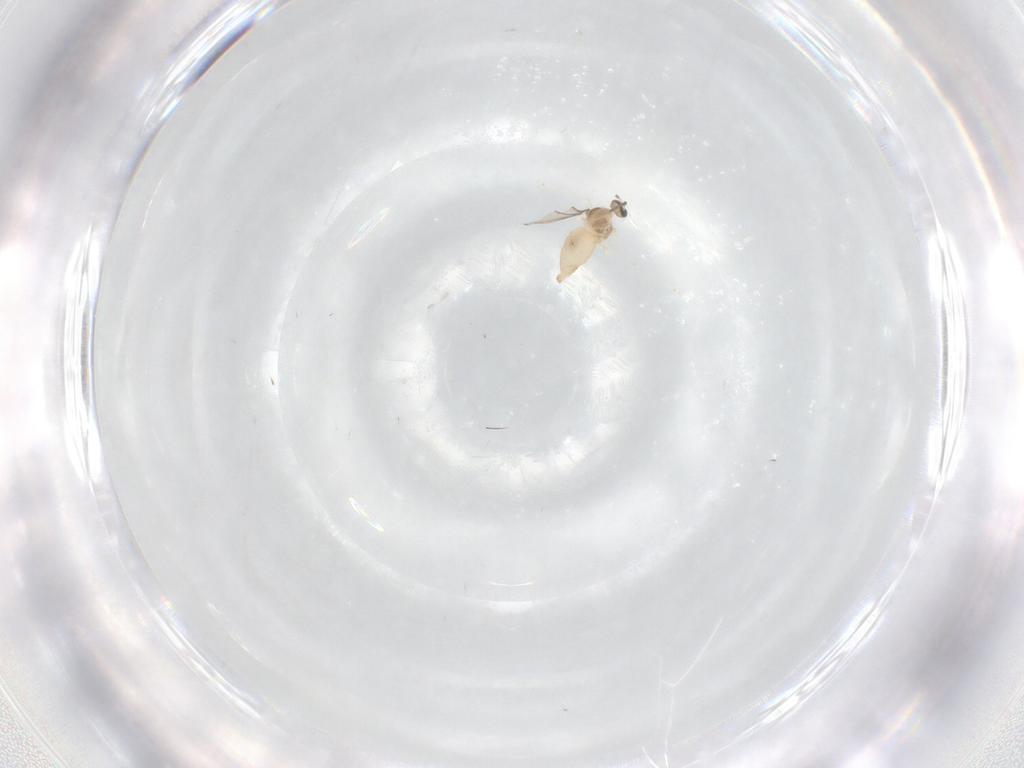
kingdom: Animalia
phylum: Arthropoda
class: Insecta
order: Diptera
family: Cecidomyiidae
